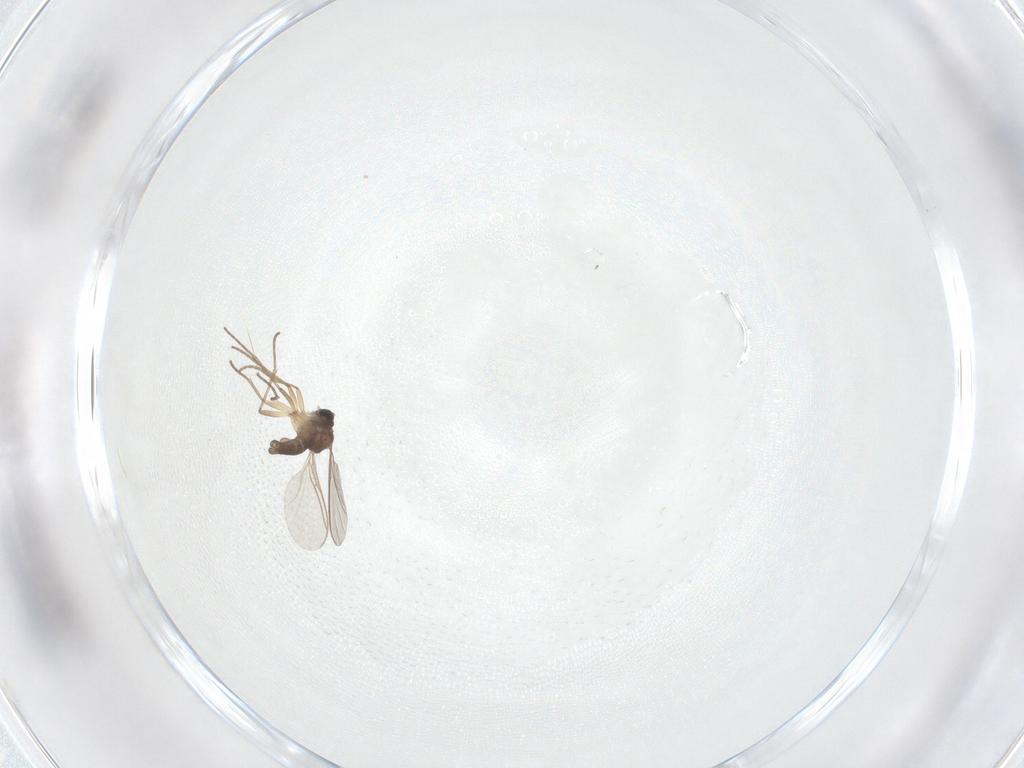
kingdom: Animalia
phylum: Arthropoda
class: Insecta
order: Diptera
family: Sciaridae
